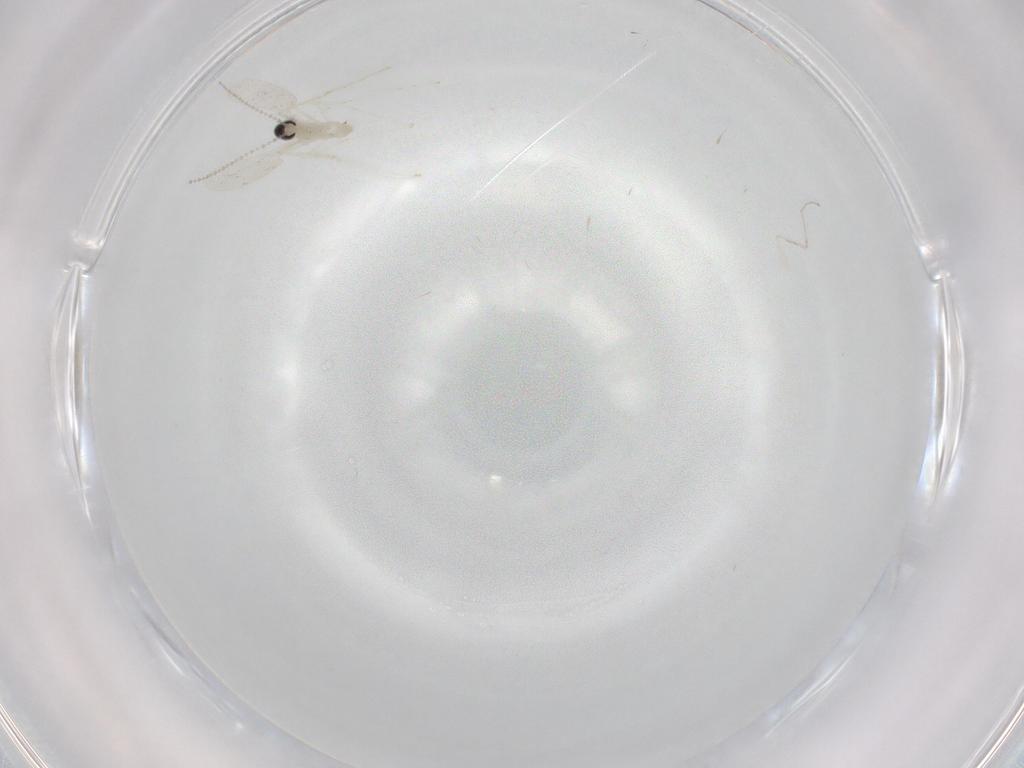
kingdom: Animalia
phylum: Arthropoda
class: Insecta
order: Diptera
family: Cecidomyiidae
